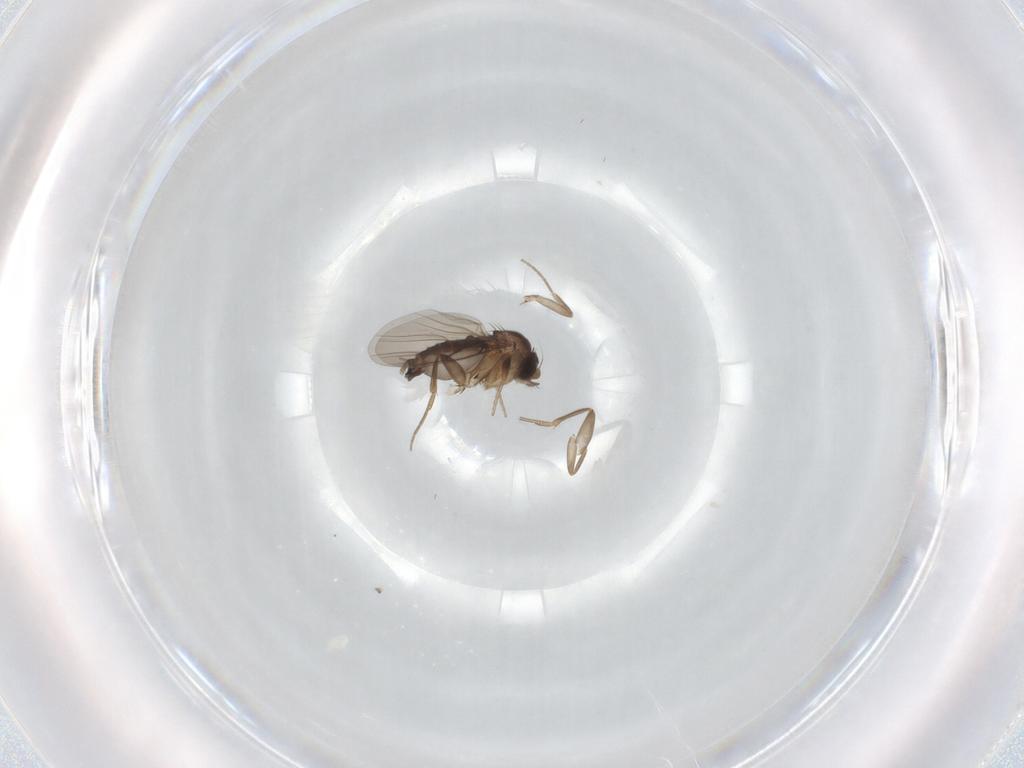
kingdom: Animalia
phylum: Arthropoda
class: Insecta
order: Diptera
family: Phoridae
